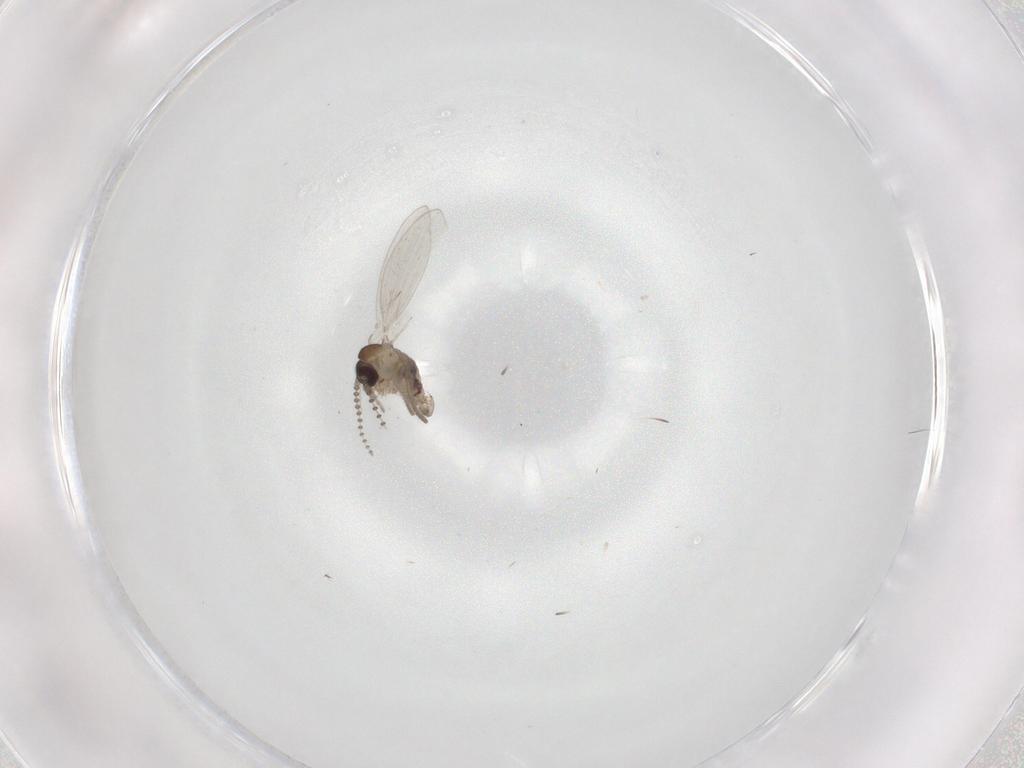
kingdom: Animalia
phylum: Arthropoda
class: Insecta
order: Diptera
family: Psychodidae
